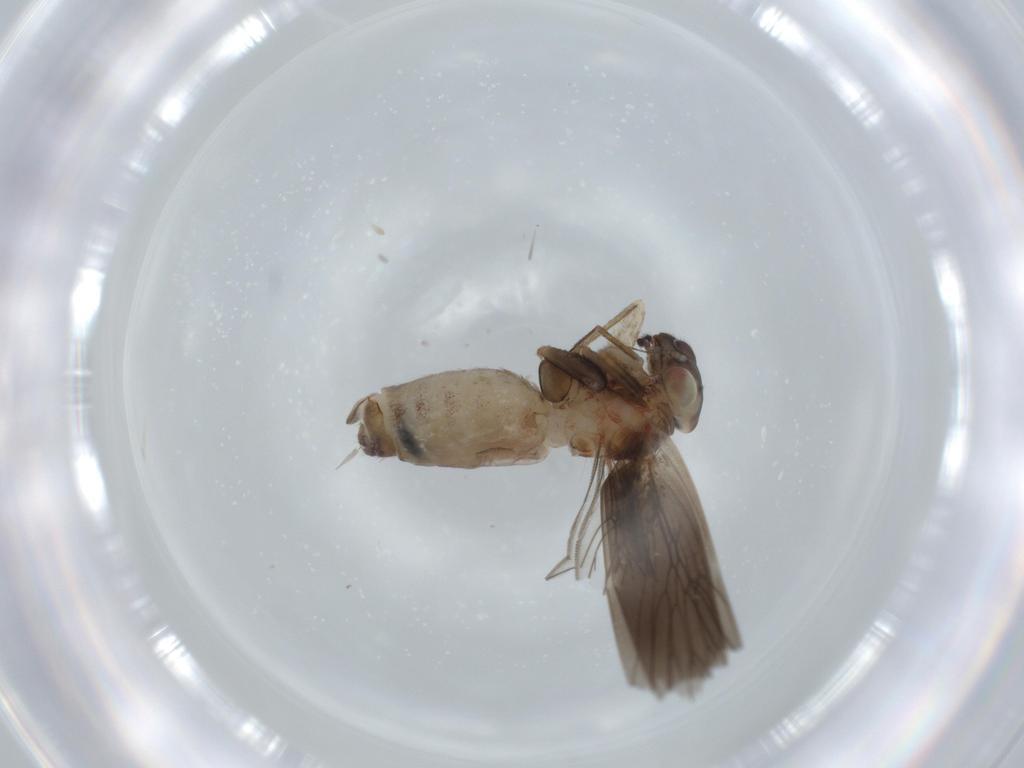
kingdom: Animalia
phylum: Arthropoda
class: Insecta
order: Psocodea
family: Lepidopsocidae
